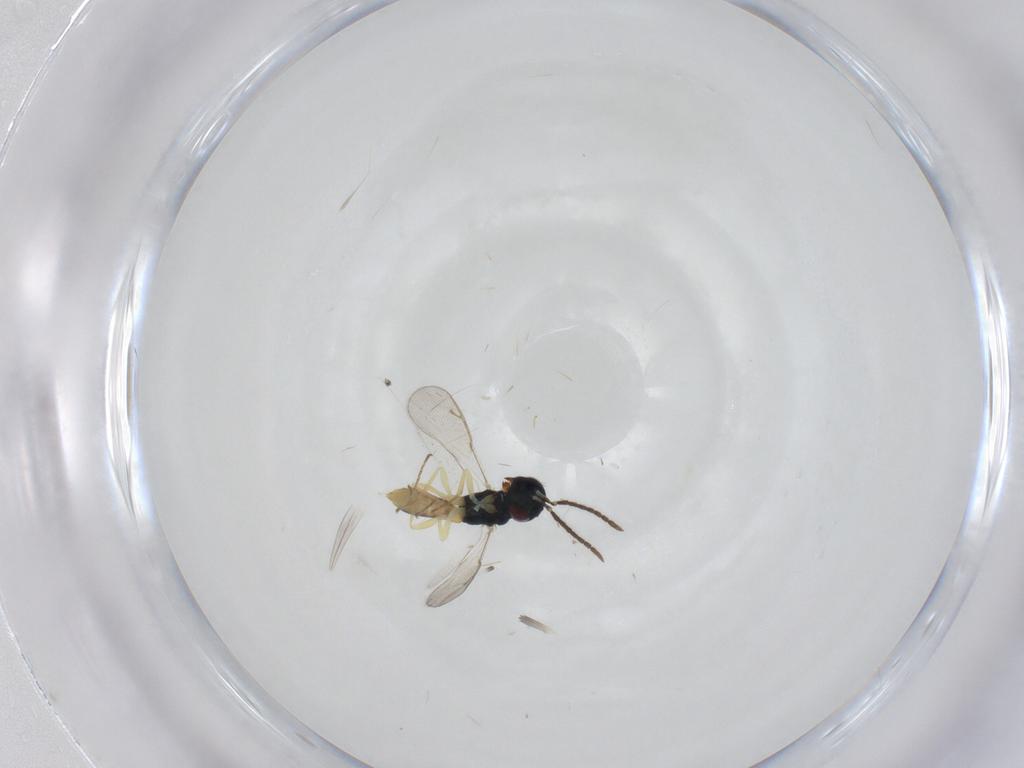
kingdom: Animalia
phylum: Arthropoda
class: Insecta
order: Hymenoptera
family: Pteromalidae
